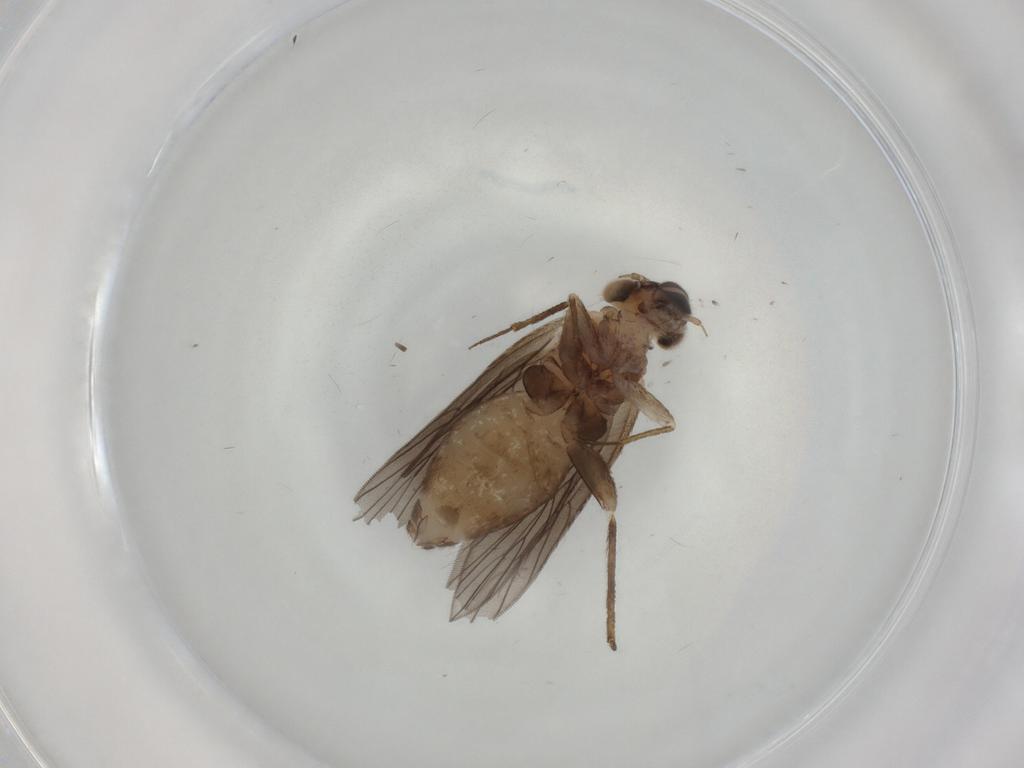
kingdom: Animalia
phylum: Arthropoda
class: Insecta
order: Psocodea
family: Lepidopsocidae
